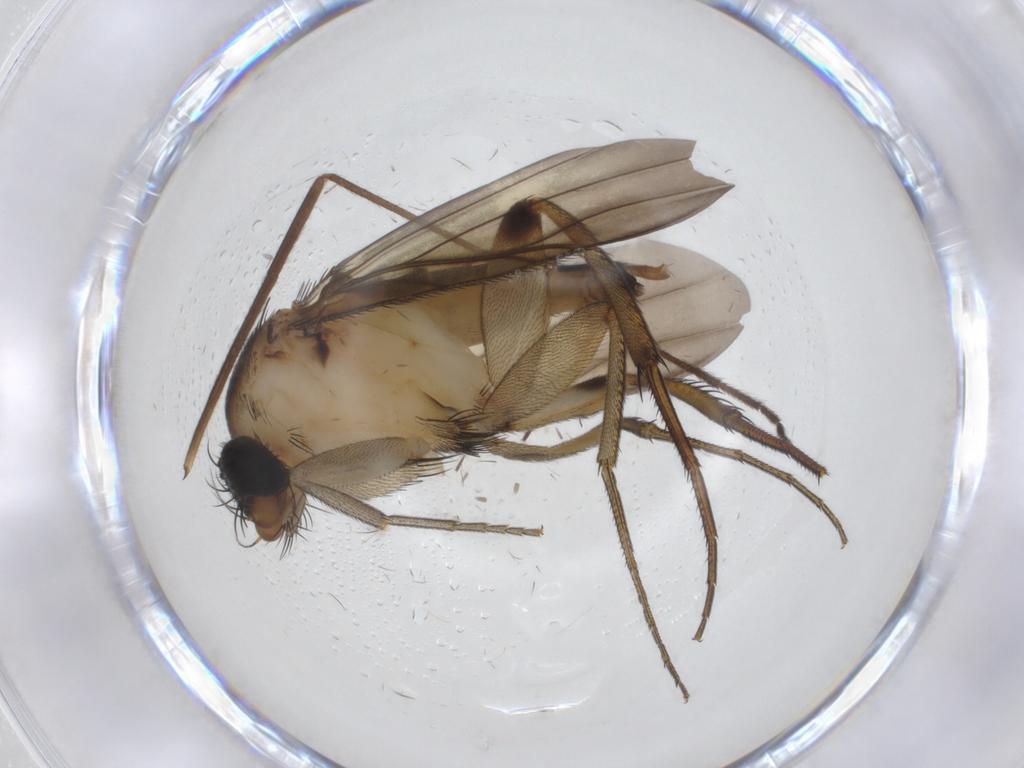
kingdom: Animalia
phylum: Arthropoda
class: Insecta
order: Diptera
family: Phoridae
